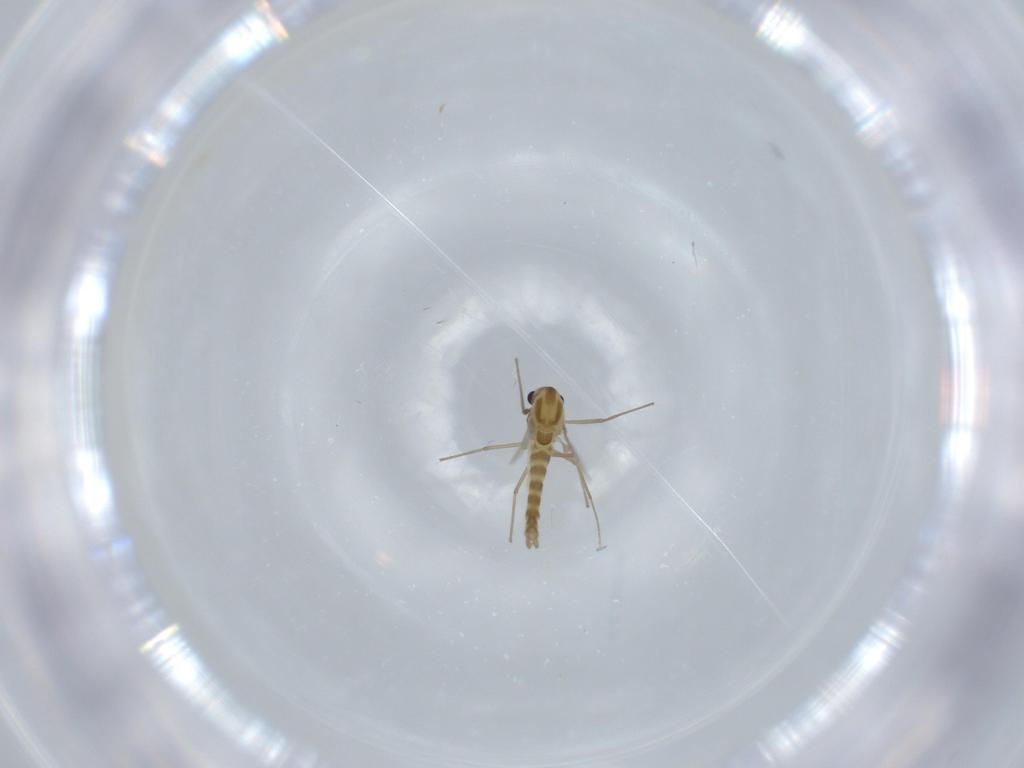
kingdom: Animalia
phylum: Arthropoda
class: Insecta
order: Diptera
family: Chironomidae
